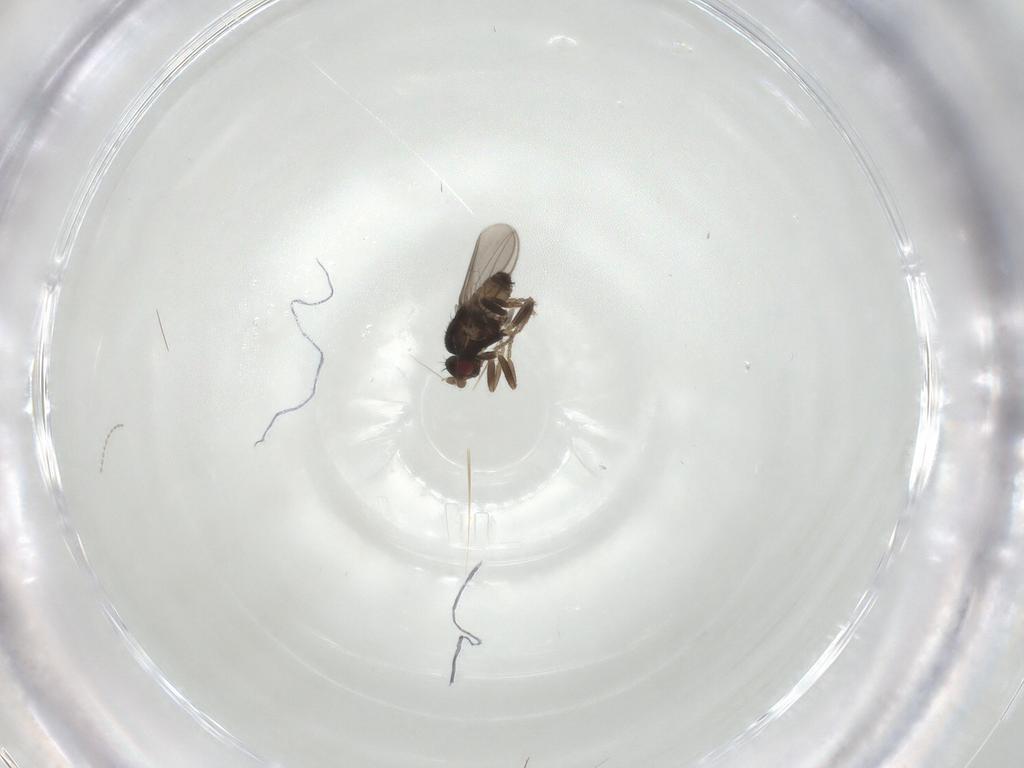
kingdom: Animalia
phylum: Arthropoda
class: Insecta
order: Diptera
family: Sphaeroceridae
